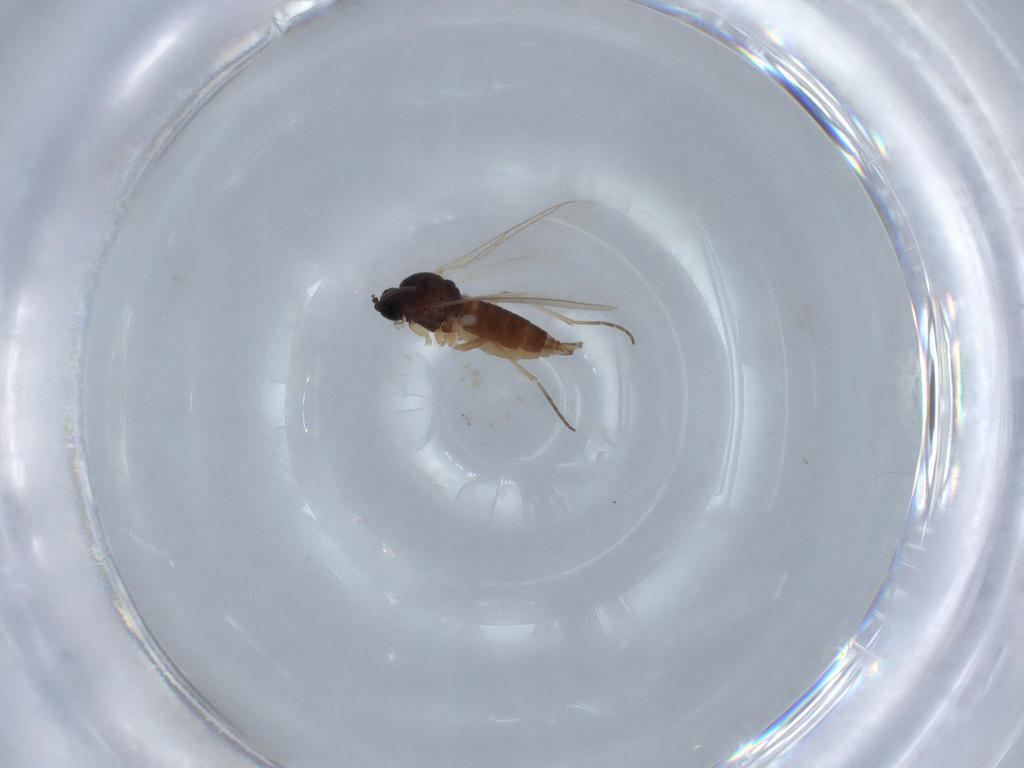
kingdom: Animalia
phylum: Arthropoda
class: Insecta
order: Diptera
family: Sciaridae
